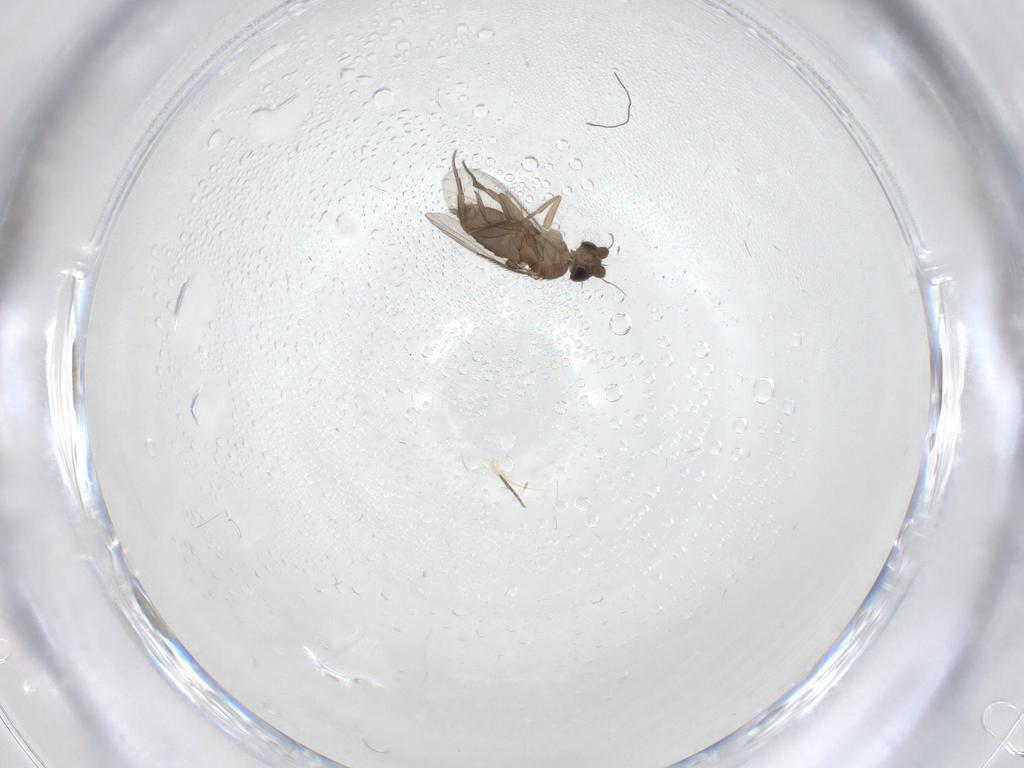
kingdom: Animalia
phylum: Arthropoda
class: Insecta
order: Diptera
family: Phoridae
